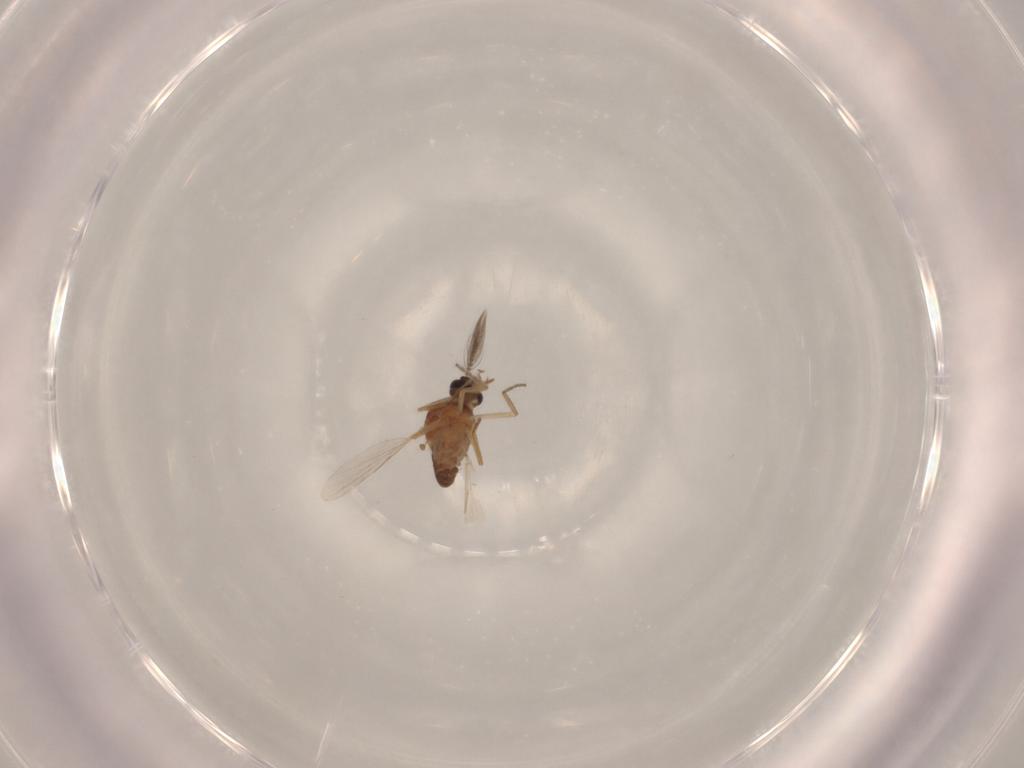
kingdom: Animalia
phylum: Arthropoda
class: Insecta
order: Diptera
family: Ceratopogonidae
